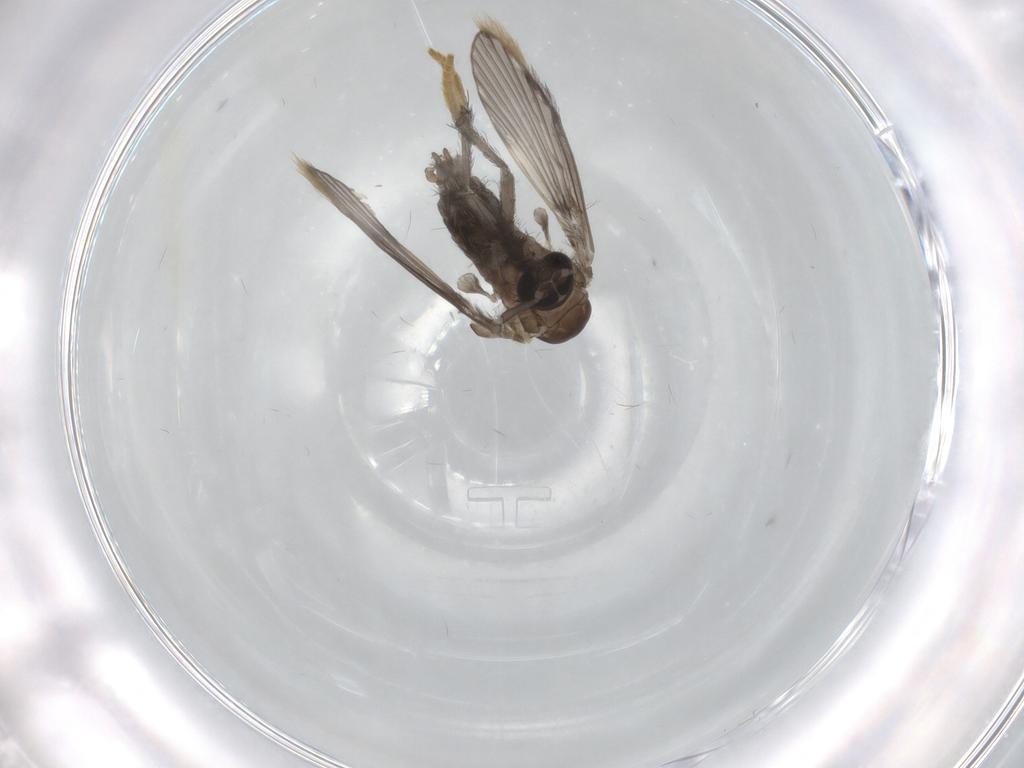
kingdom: Animalia
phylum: Arthropoda
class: Insecta
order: Diptera
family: Psychodidae
